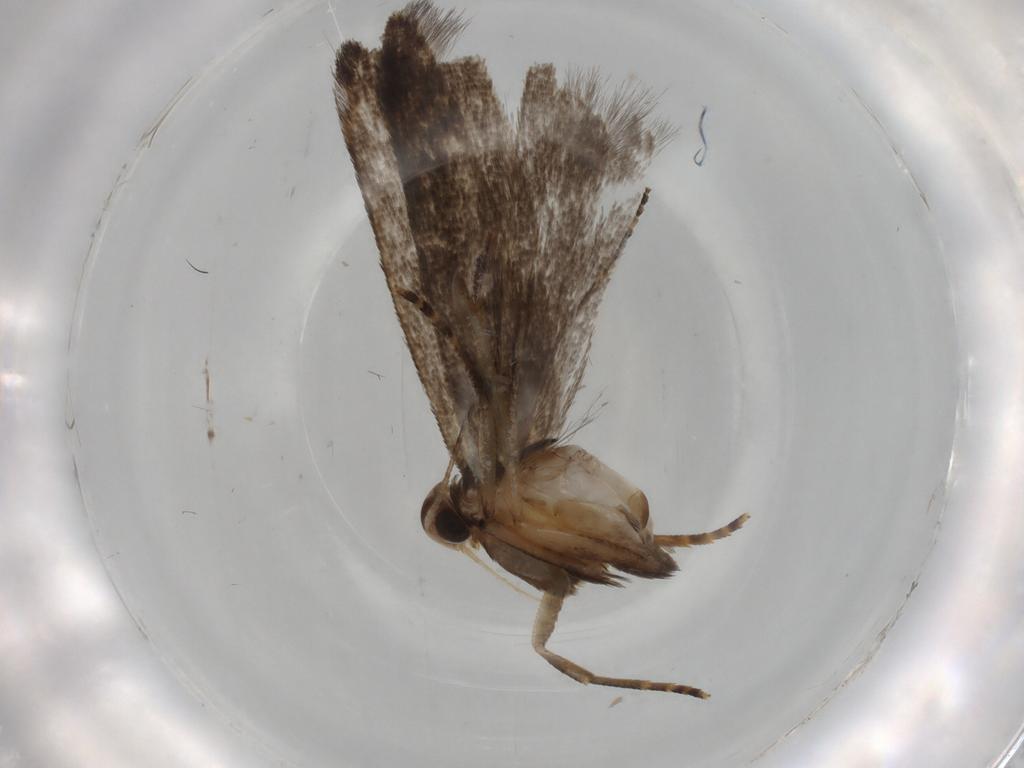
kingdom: Animalia
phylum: Arthropoda
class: Insecta
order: Lepidoptera
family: Gelechiidae
